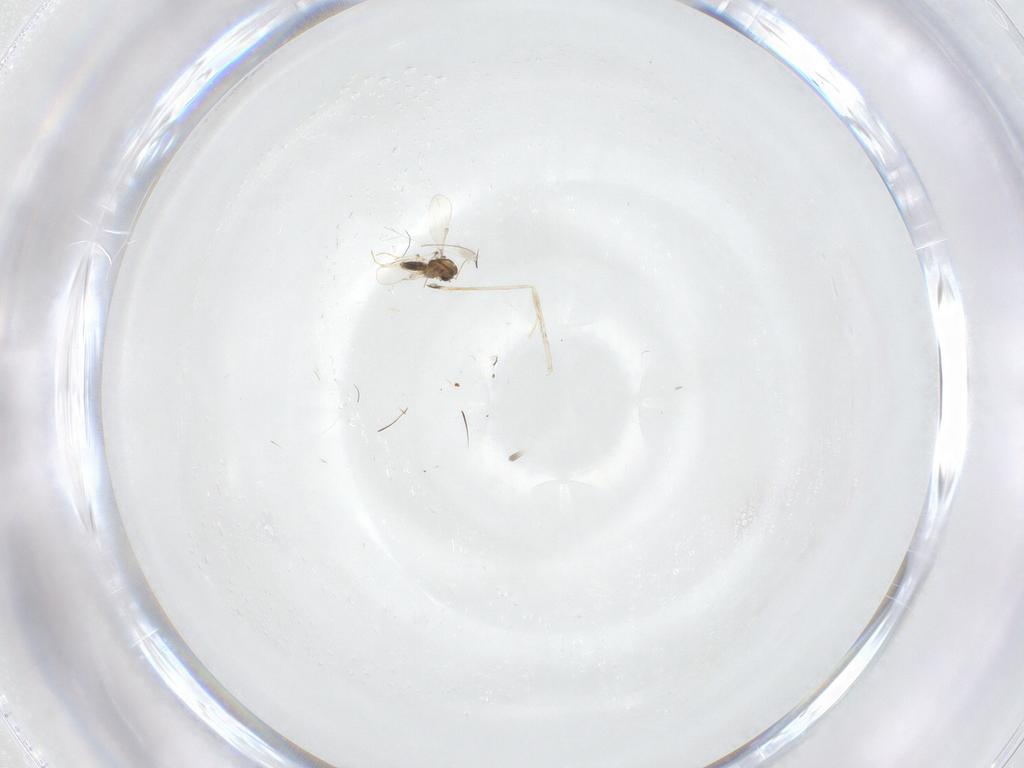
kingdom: Animalia
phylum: Arthropoda
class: Insecta
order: Diptera
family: Chironomidae
